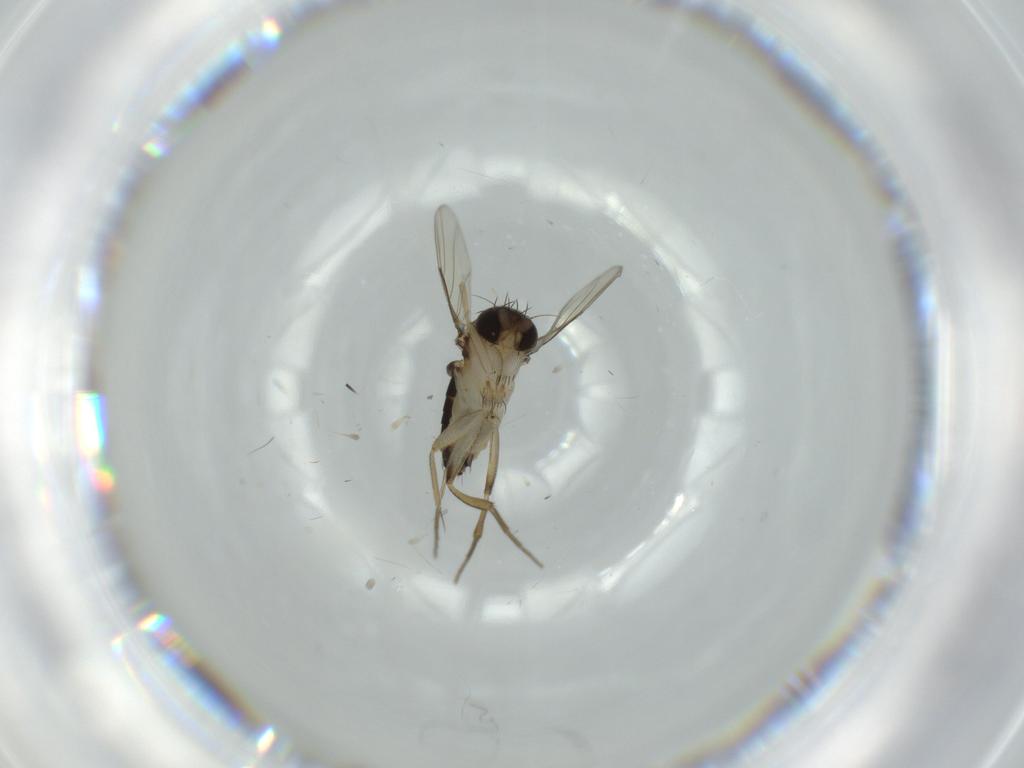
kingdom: Animalia
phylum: Arthropoda
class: Insecta
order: Diptera
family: Phoridae
